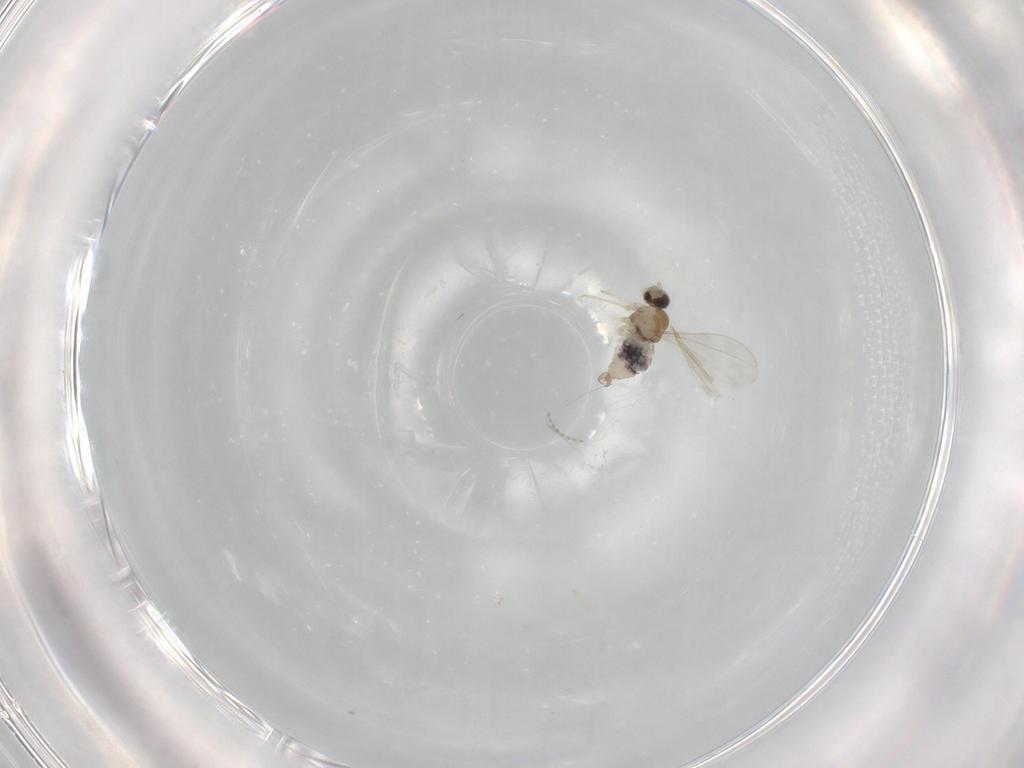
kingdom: Animalia
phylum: Arthropoda
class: Insecta
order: Diptera
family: Cecidomyiidae
